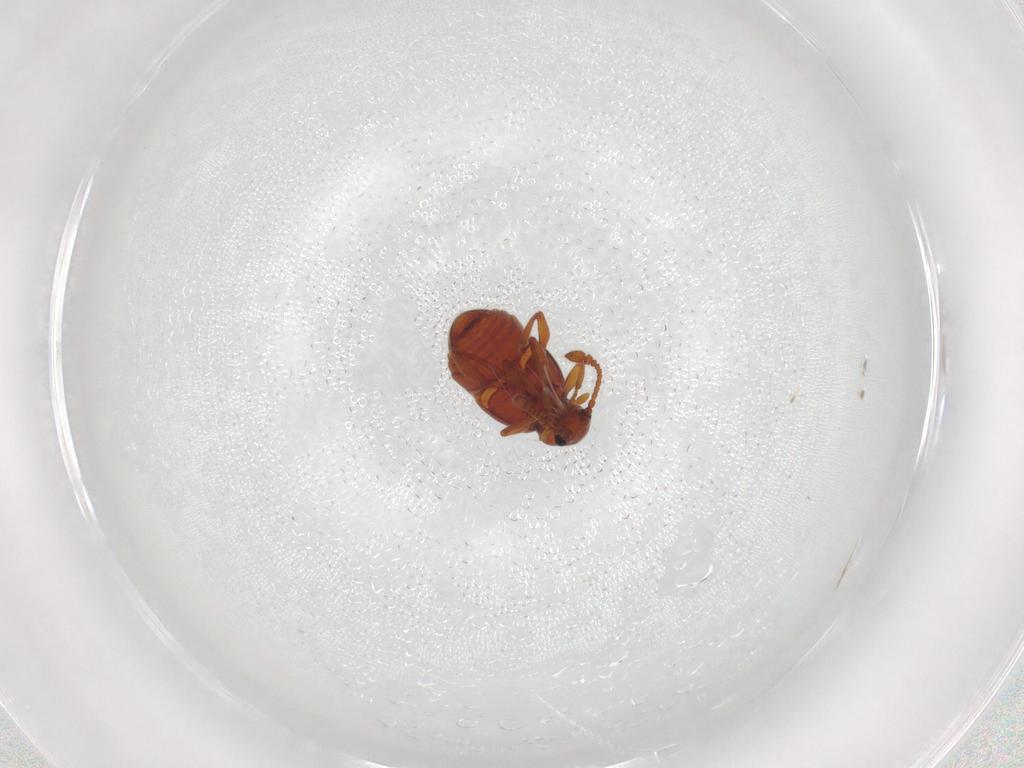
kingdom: Animalia
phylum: Arthropoda
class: Insecta
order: Coleoptera
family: Staphylinidae
